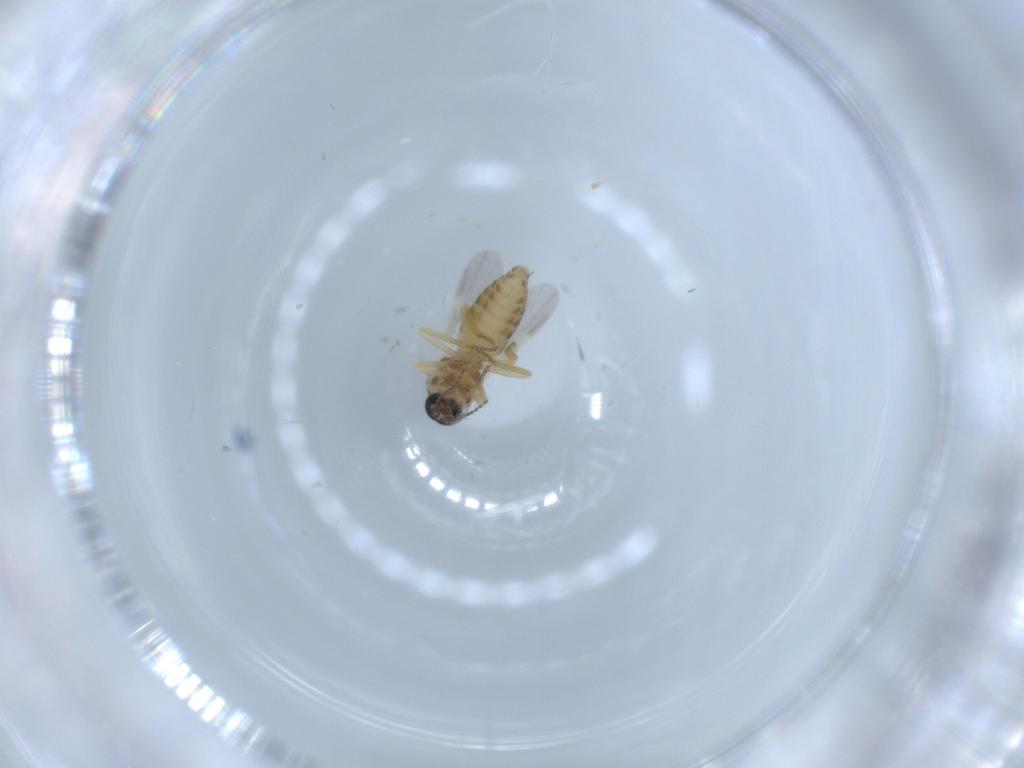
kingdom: Animalia
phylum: Arthropoda
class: Insecta
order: Diptera
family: Ceratopogonidae
